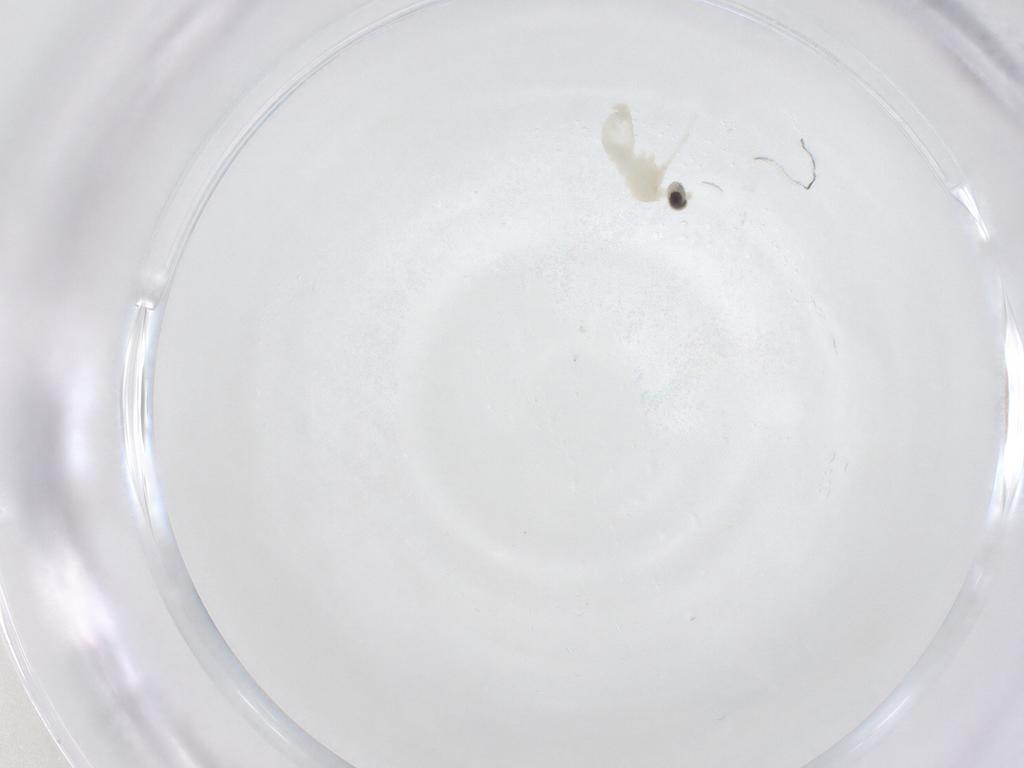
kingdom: Animalia
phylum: Arthropoda
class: Insecta
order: Diptera
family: Cecidomyiidae
